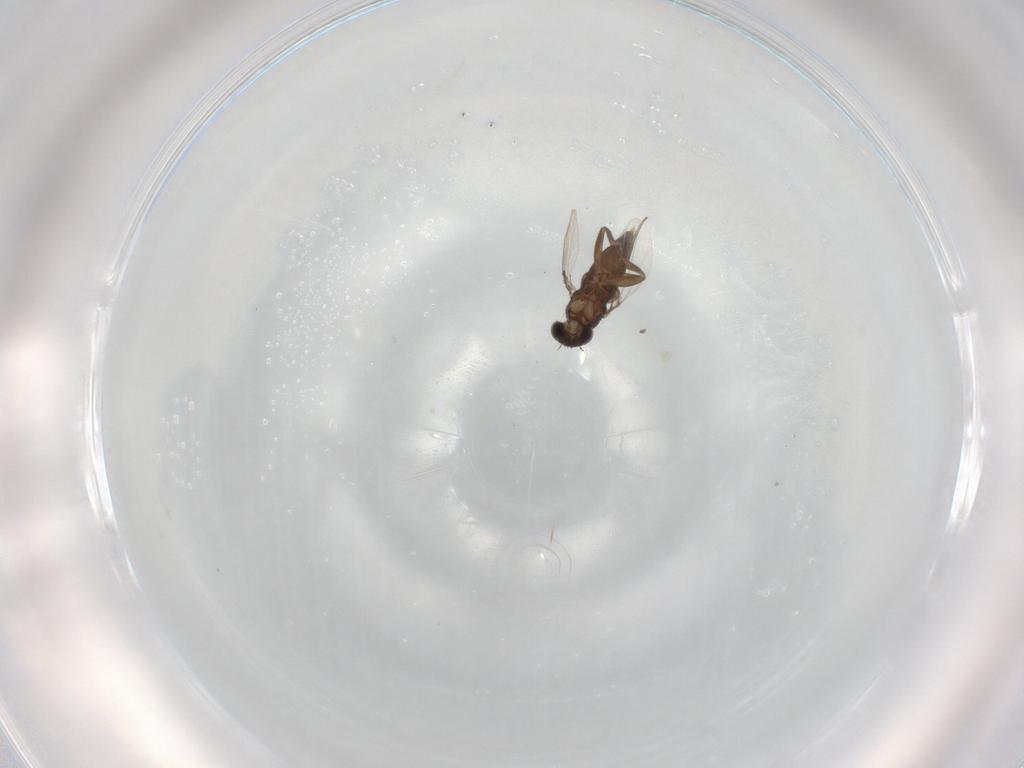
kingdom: Animalia
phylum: Arthropoda
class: Insecta
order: Diptera
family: Phoridae
